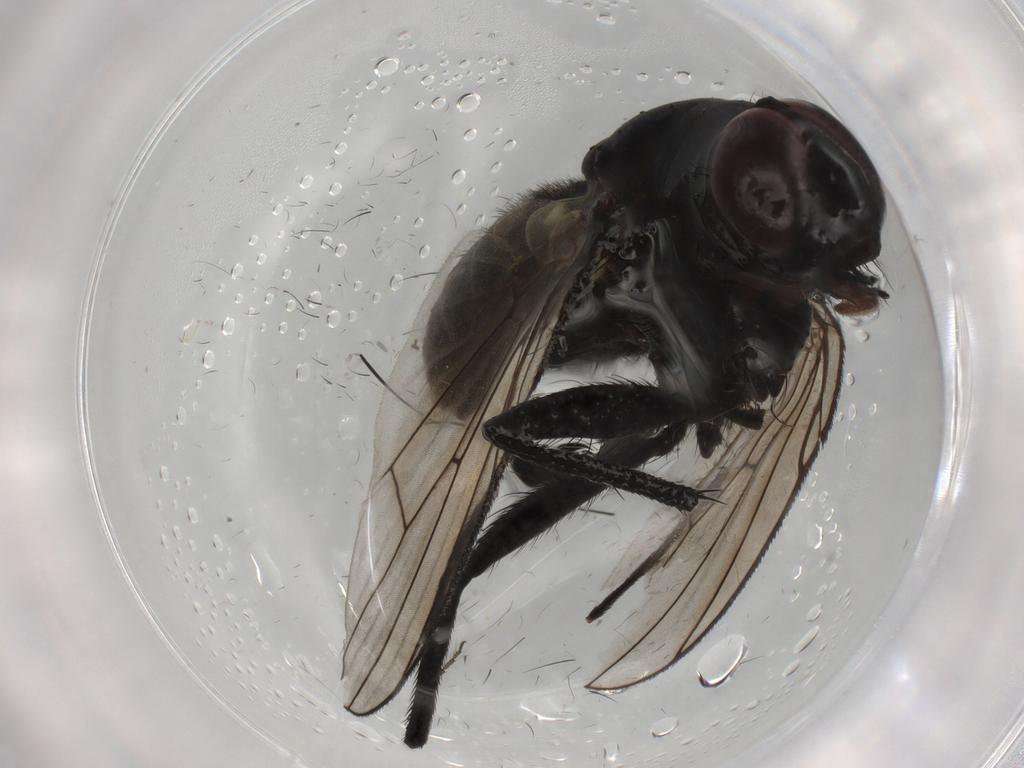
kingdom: Animalia
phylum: Arthropoda
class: Insecta
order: Diptera
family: Muscidae
